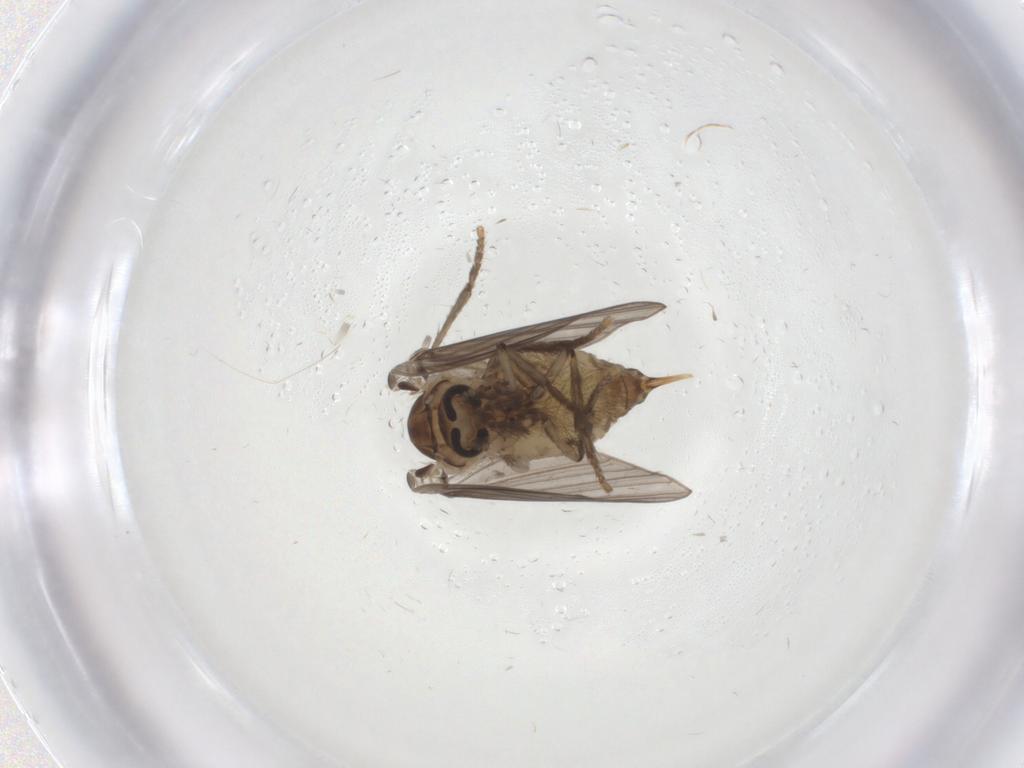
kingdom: Animalia
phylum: Arthropoda
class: Insecta
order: Diptera
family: Psychodidae
